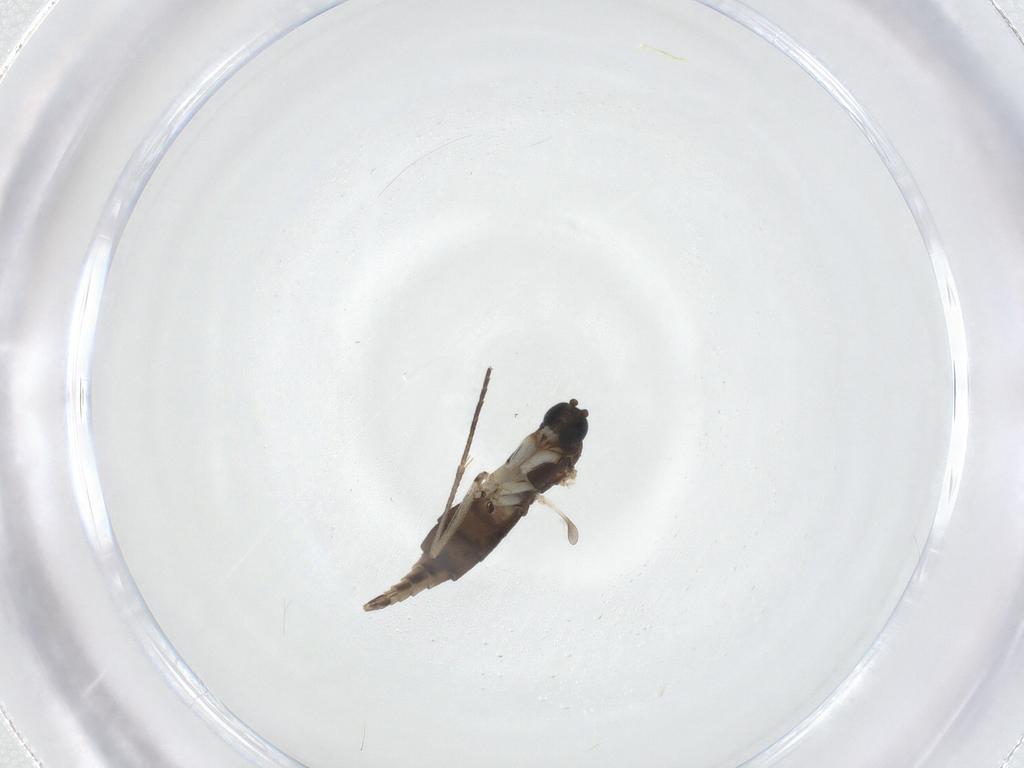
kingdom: Animalia
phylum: Arthropoda
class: Insecta
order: Diptera
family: Sciaridae
